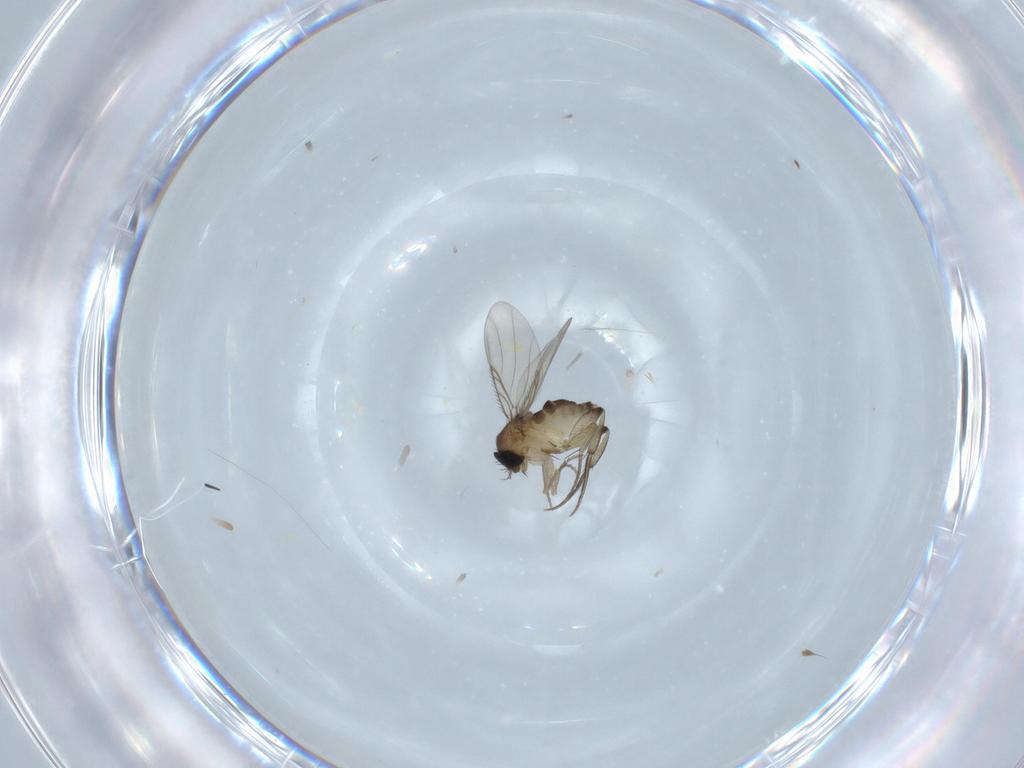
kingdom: Animalia
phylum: Arthropoda
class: Insecta
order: Diptera
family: Phoridae
